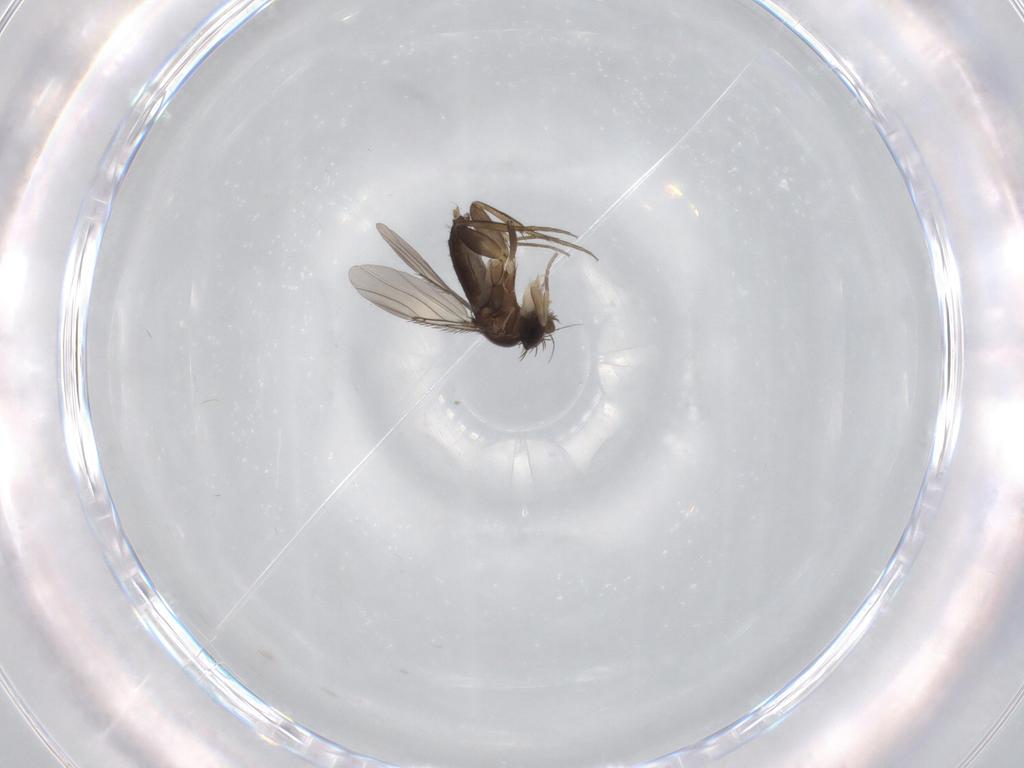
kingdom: Animalia
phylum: Arthropoda
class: Insecta
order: Diptera
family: Phoridae
